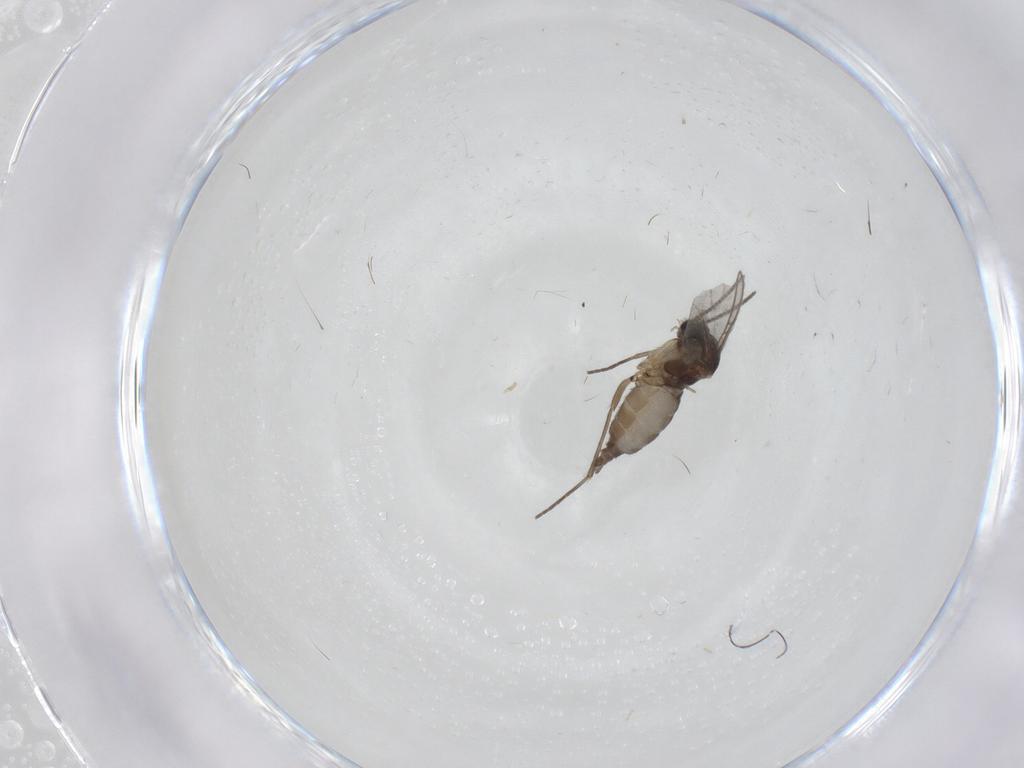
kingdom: Animalia
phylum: Arthropoda
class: Insecta
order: Diptera
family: Sciaridae
